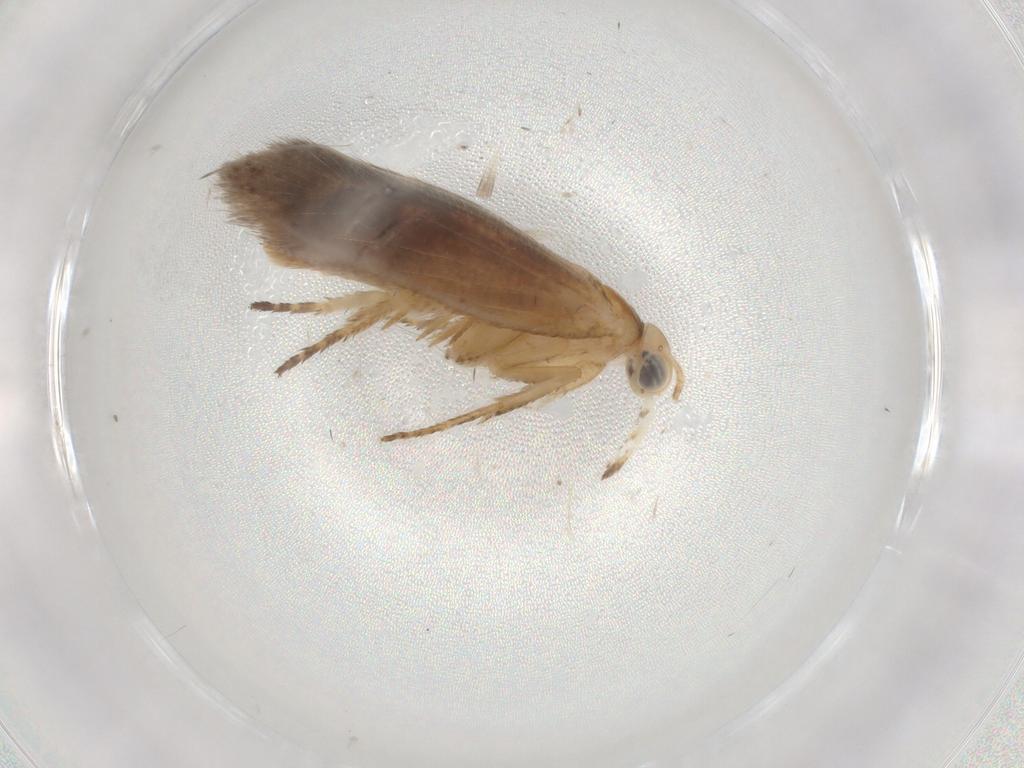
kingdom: Animalia
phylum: Arthropoda
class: Insecta
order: Lepidoptera
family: Plutellidae
